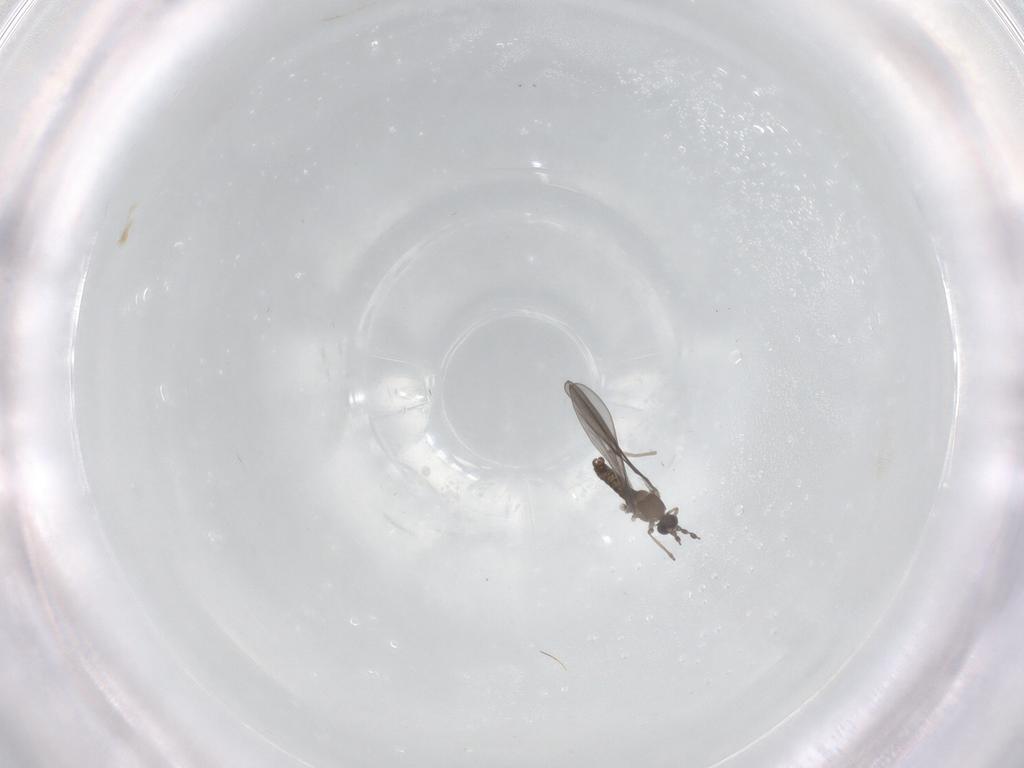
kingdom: Animalia
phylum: Arthropoda
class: Insecta
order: Diptera
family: Cecidomyiidae
